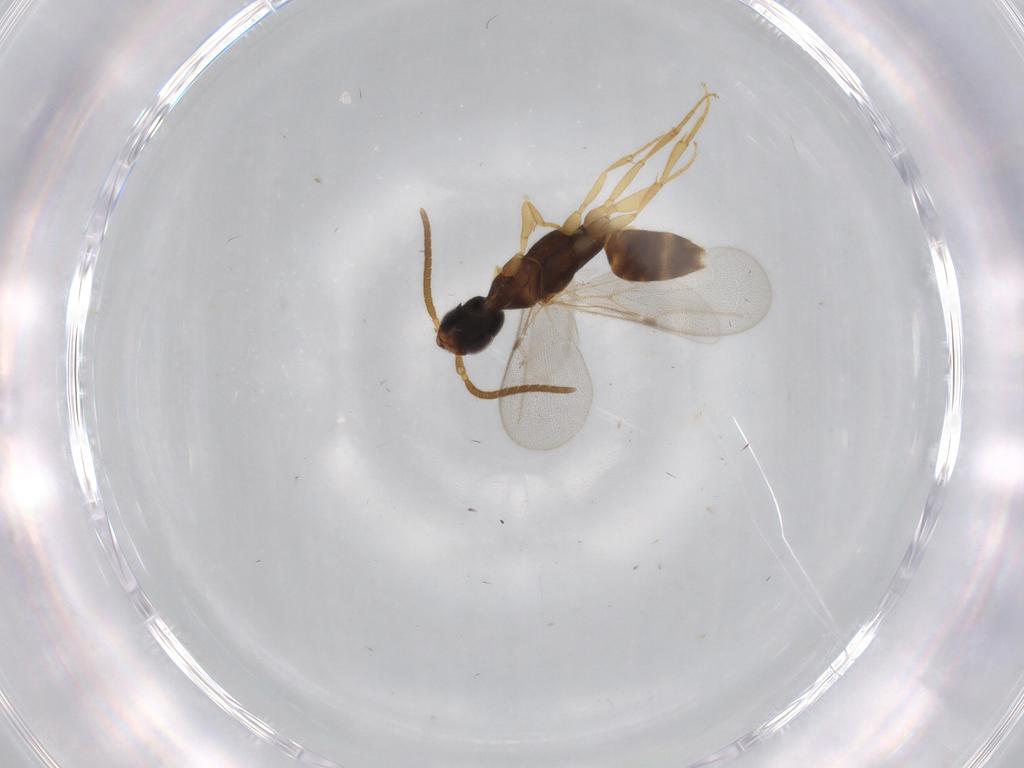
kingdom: Animalia
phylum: Arthropoda
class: Insecta
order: Hymenoptera
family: Bethylidae
